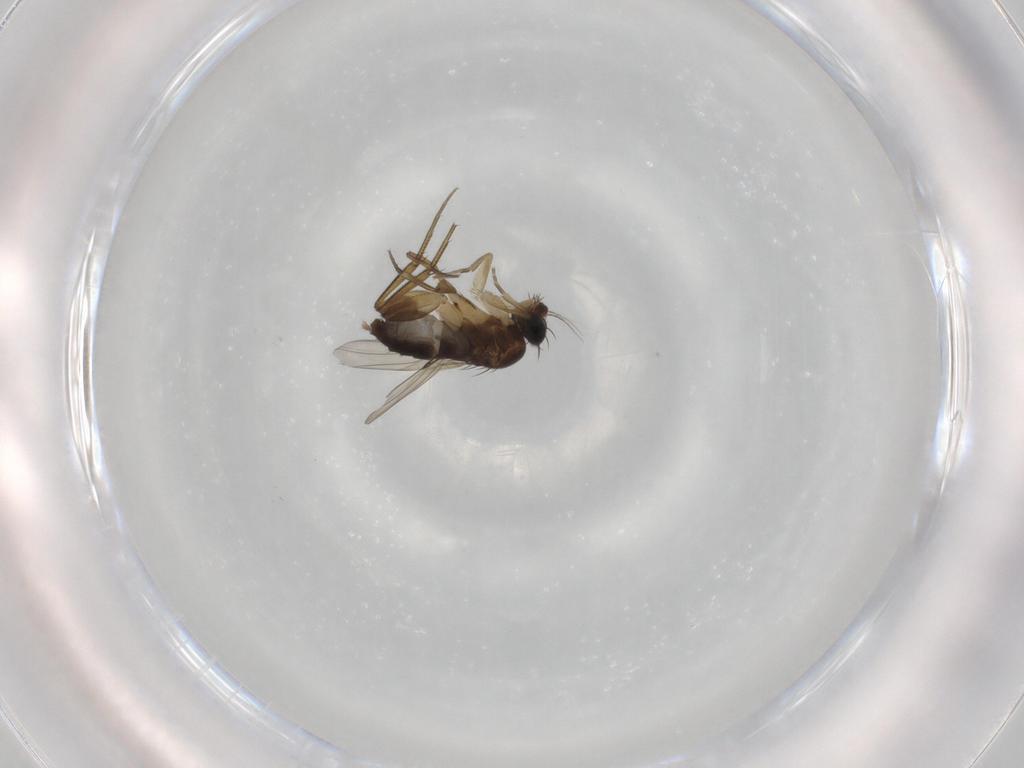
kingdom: Animalia
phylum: Arthropoda
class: Insecta
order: Diptera
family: Phoridae
